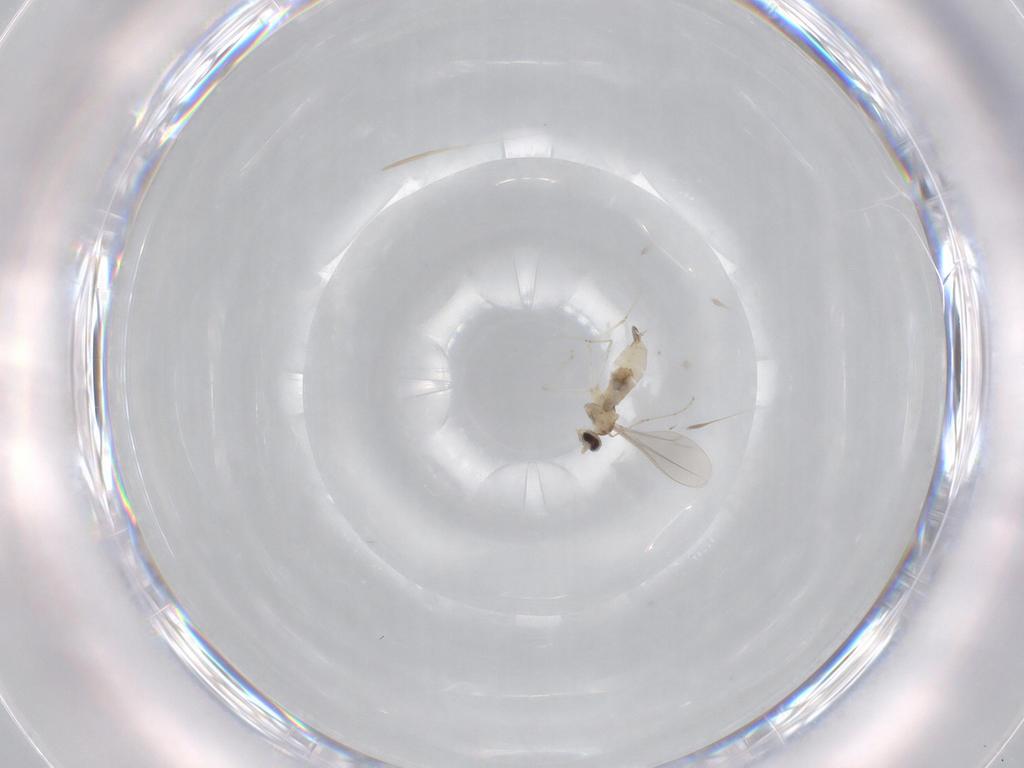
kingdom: Animalia
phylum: Arthropoda
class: Insecta
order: Diptera
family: Cecidomyiidae
